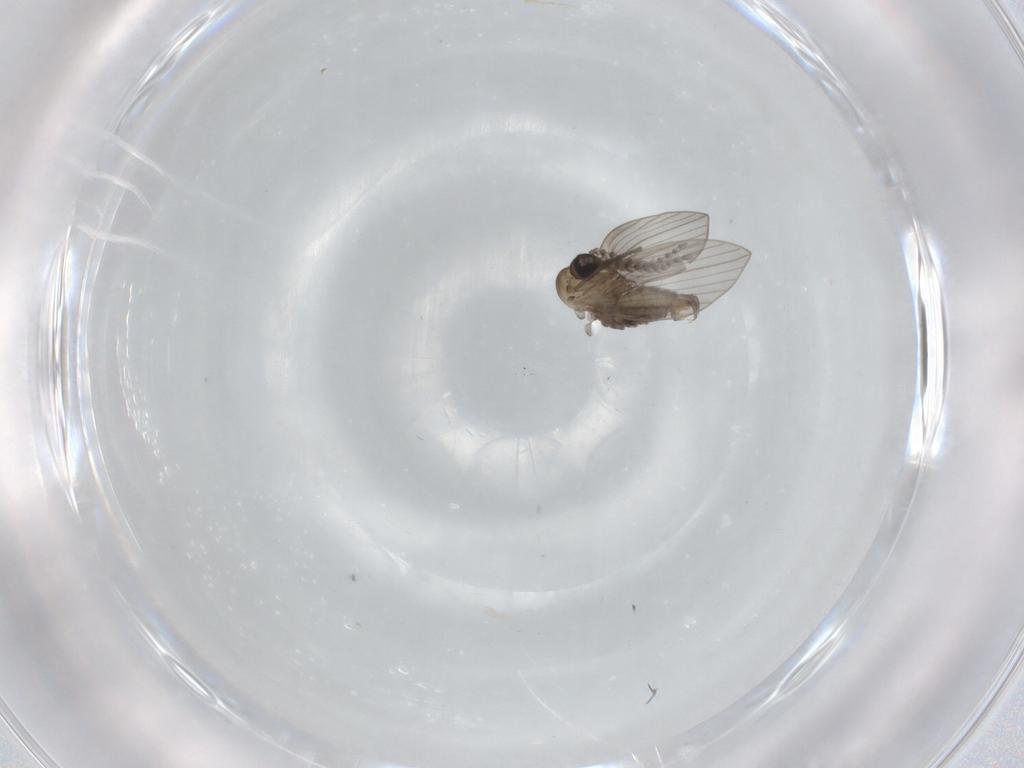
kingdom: Animalia
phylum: Arthropoda
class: Insecta
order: Diptera
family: Psychodidae
